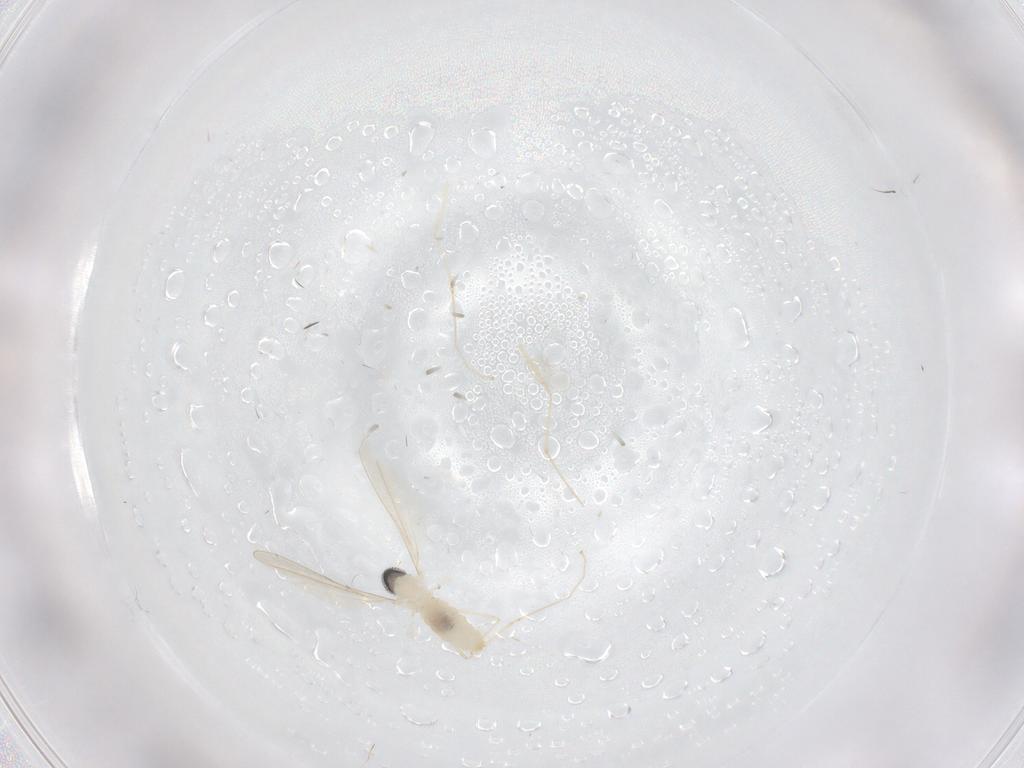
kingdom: Animalia
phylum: Arthropoda
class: Insecta
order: Diptera
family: Cecidomyiidae
